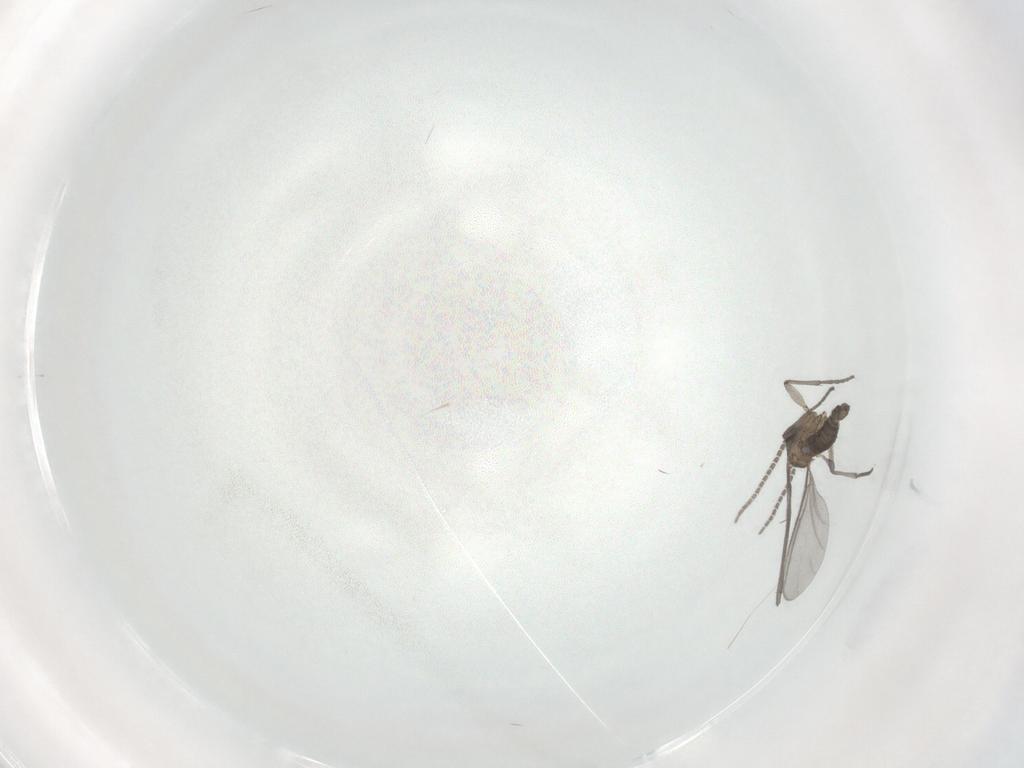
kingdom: Animalia
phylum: Arthropoda
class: Insecta
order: Diptera
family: Sciaridae
